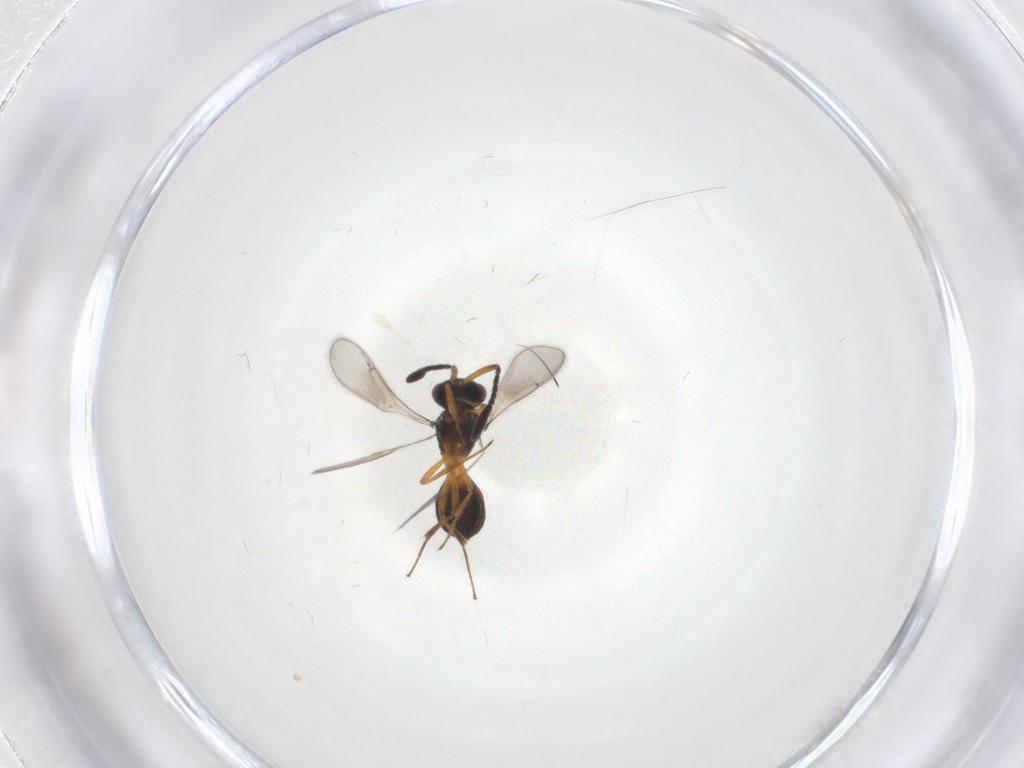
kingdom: Animalia
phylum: Arthropoda
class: Insecta
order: Hymenoptera
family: Scelionidae
